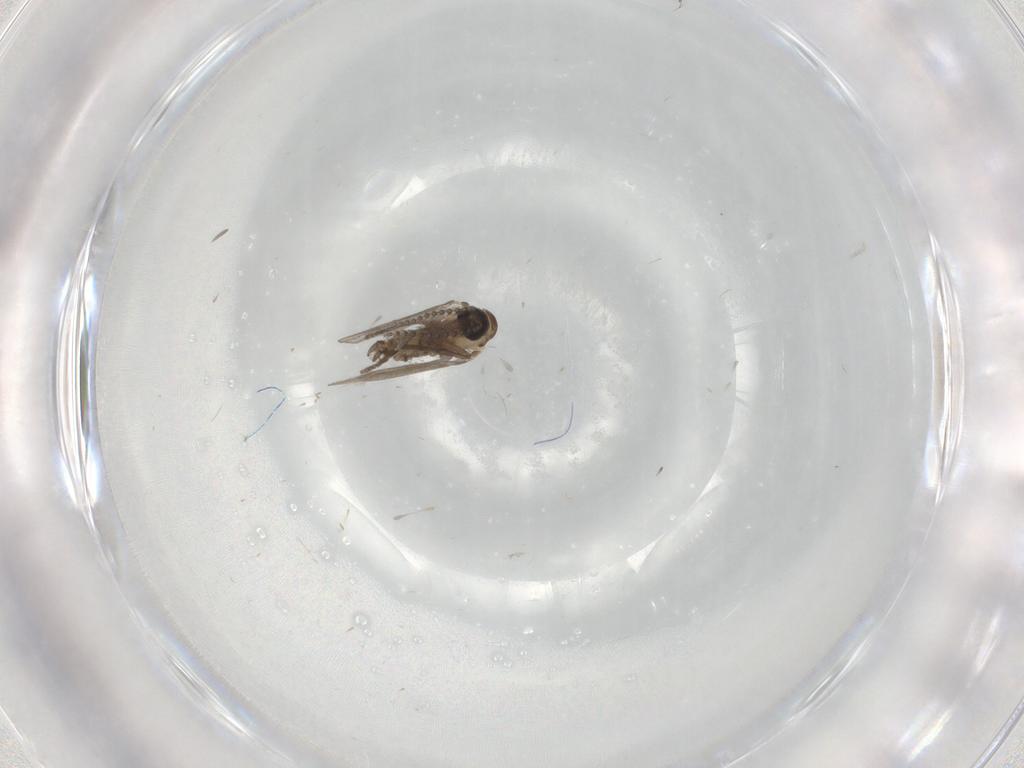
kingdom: Animalia
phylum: Arthropoda
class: Insecta
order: Diptera
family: Psychodidae
